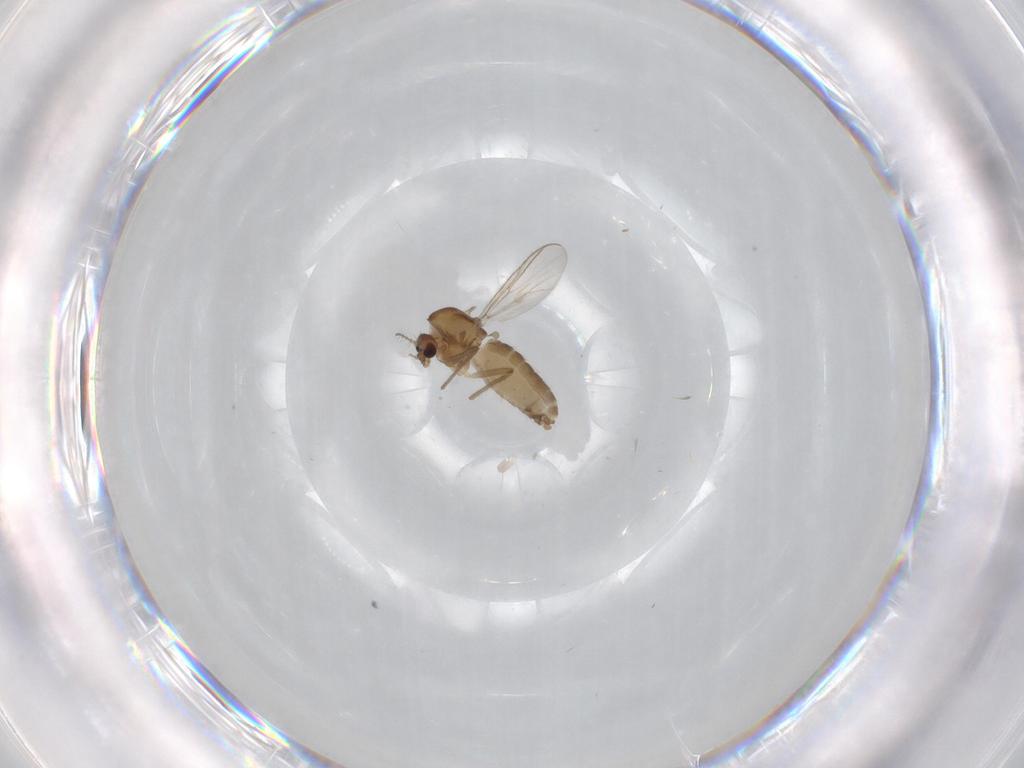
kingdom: Animalia
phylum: Arthropoda
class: Insecta
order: Diptera
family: Chironomidae
